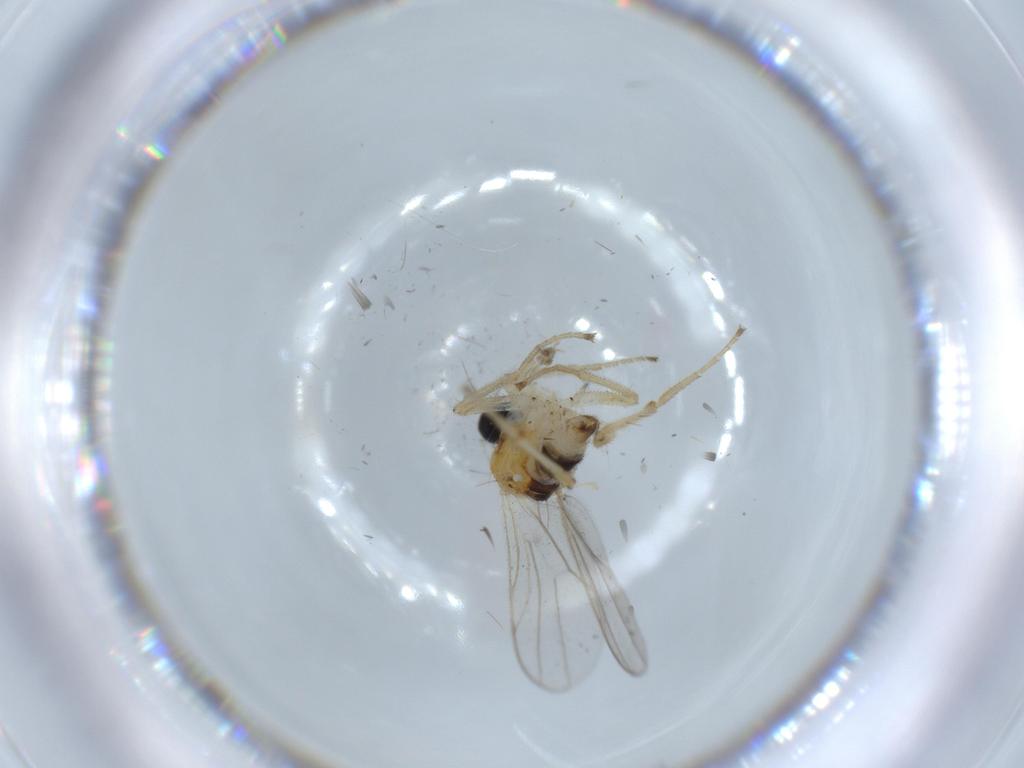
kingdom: Animalia
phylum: Arthropoda
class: Insecta
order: Diptera
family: Hybotidae
